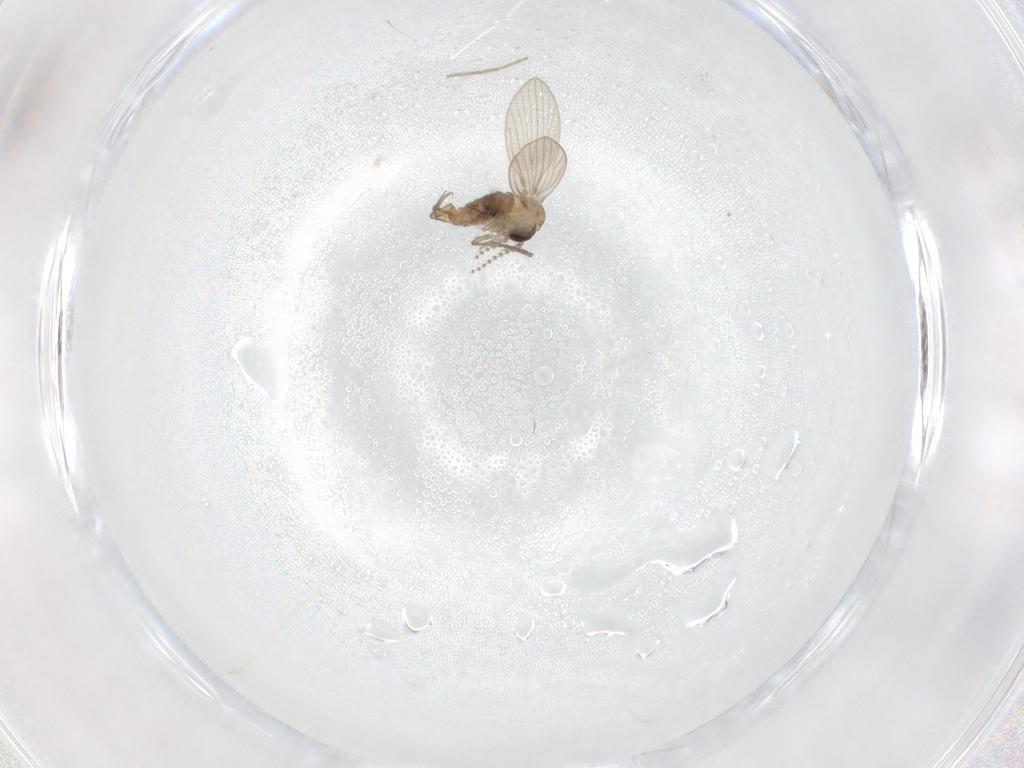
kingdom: Animalia
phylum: Arthropoda
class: Insecta
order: Diptera
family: Psychodidae
